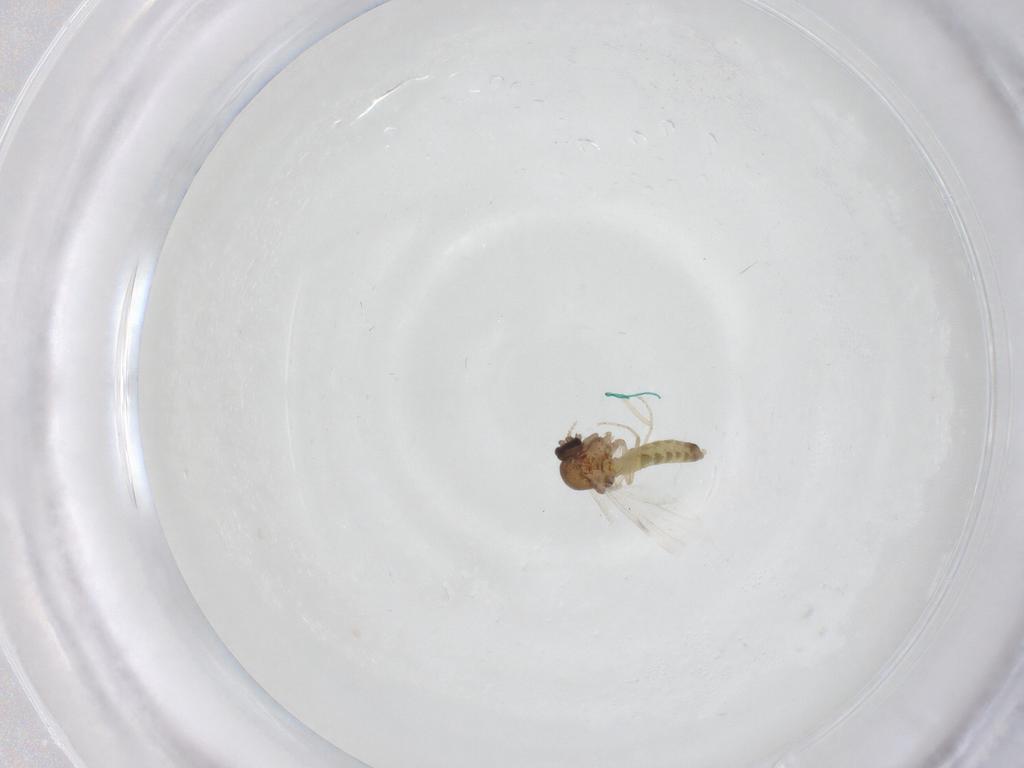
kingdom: Animalia
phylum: Arthropoda
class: Insecta
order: Diptera
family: Ceratopogonidae
